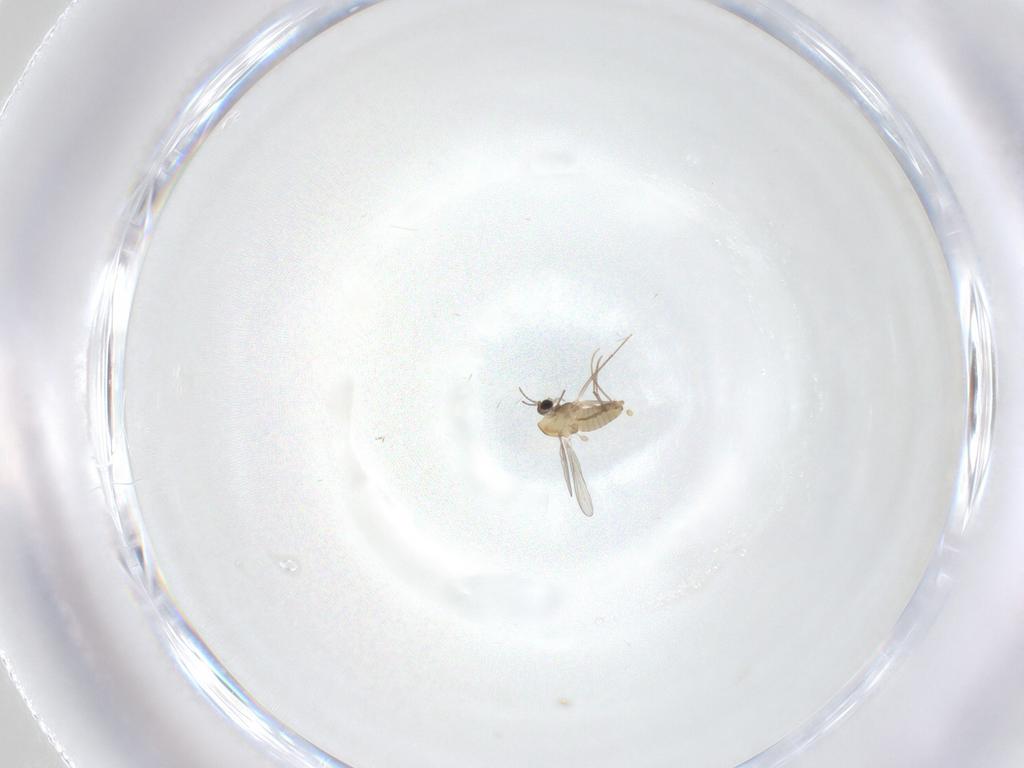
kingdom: Animalia
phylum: Arthropoda
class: Insecta
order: Diptera
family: Chironomidae
